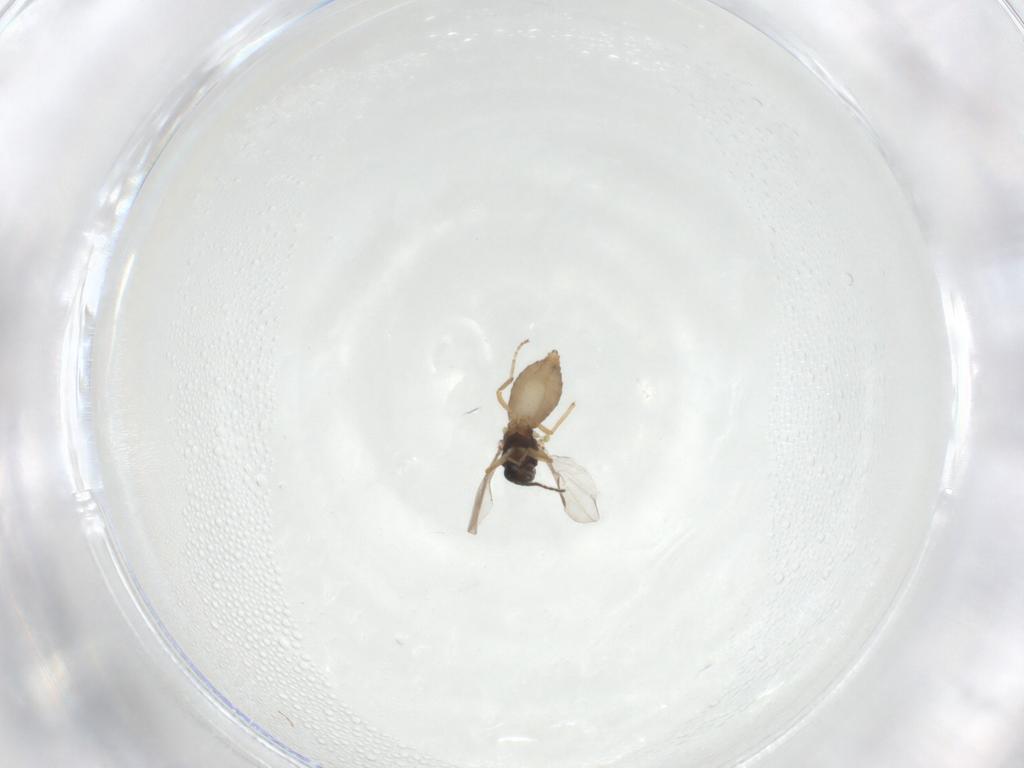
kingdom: Animalia
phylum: Arthropoda
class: Insecta
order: Diptera
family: Ceratopogonidae
